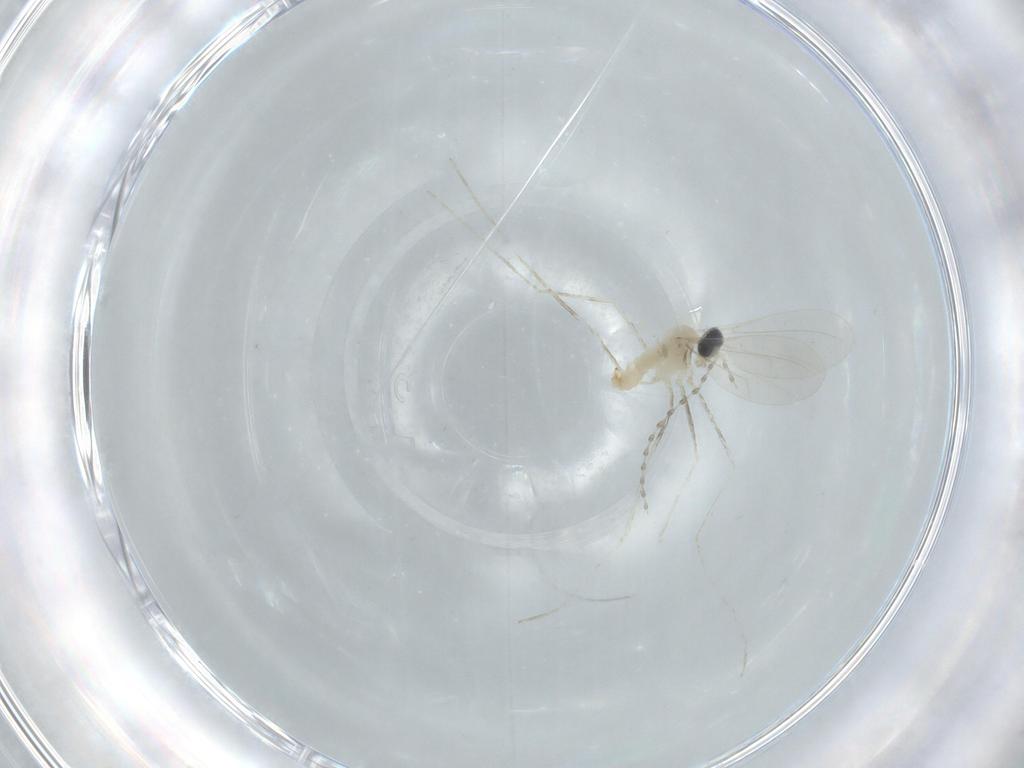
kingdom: Animalia
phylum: Arthropoda
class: Insecta
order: Diptera
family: Cecidomyiidae
